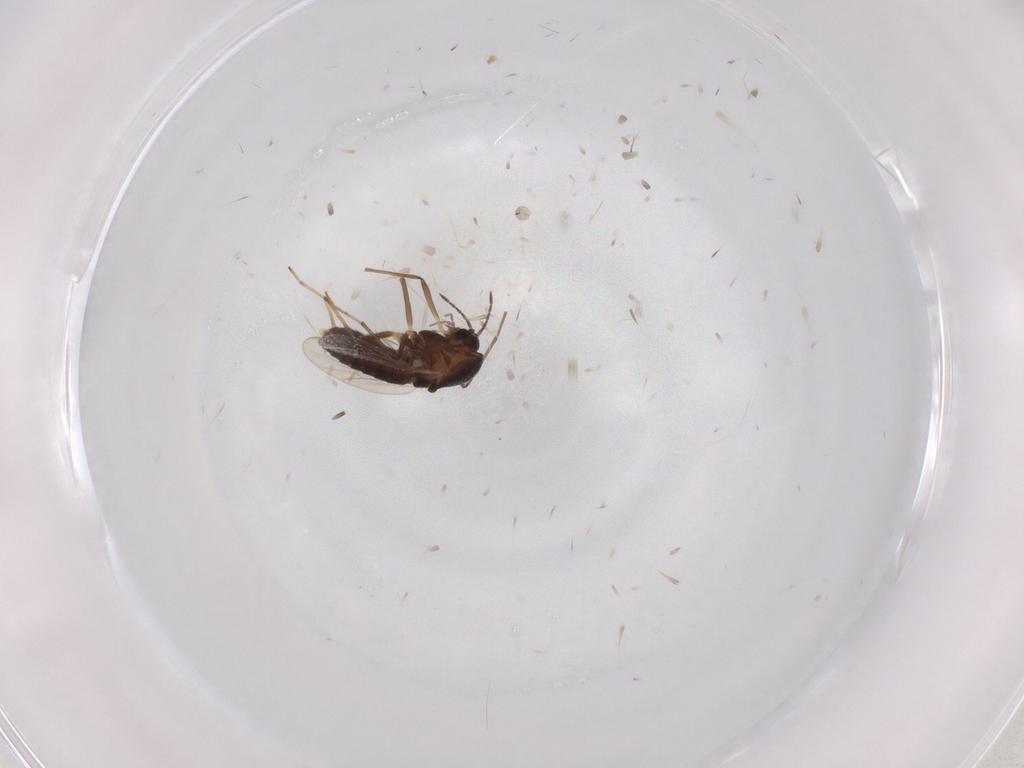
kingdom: Animalia
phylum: Arthropoda
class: Insecta
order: Diptera
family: Chironomidae
